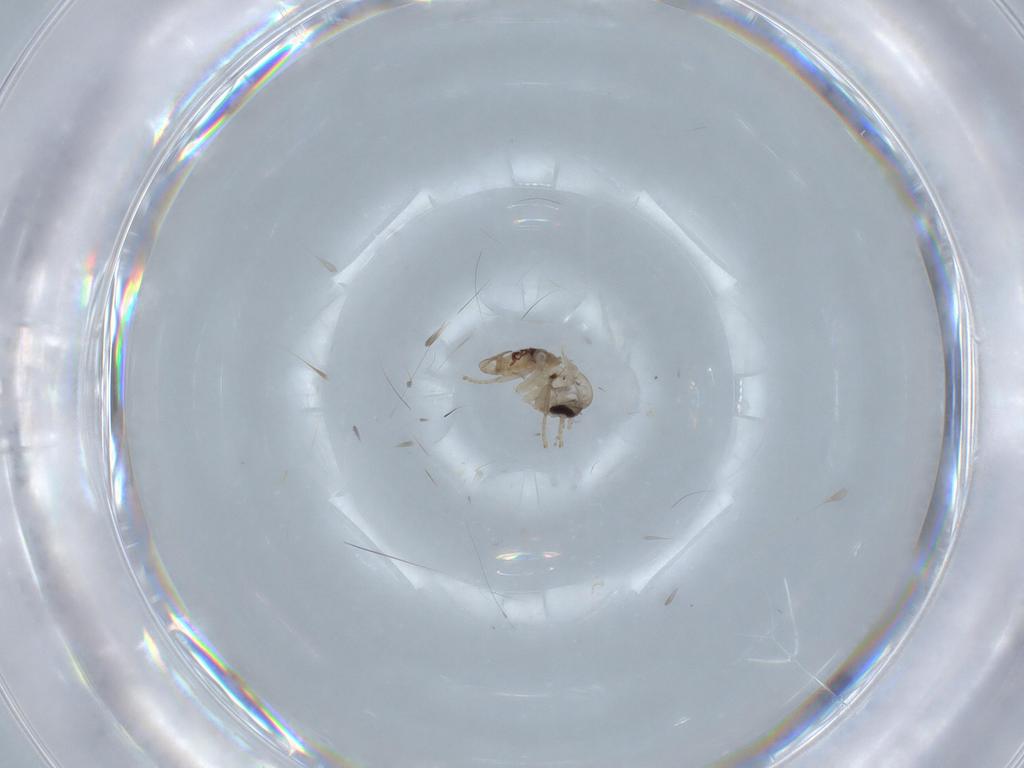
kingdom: Animalia
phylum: Arthropoda
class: Insecta
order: Diptera
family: Psychodidae
